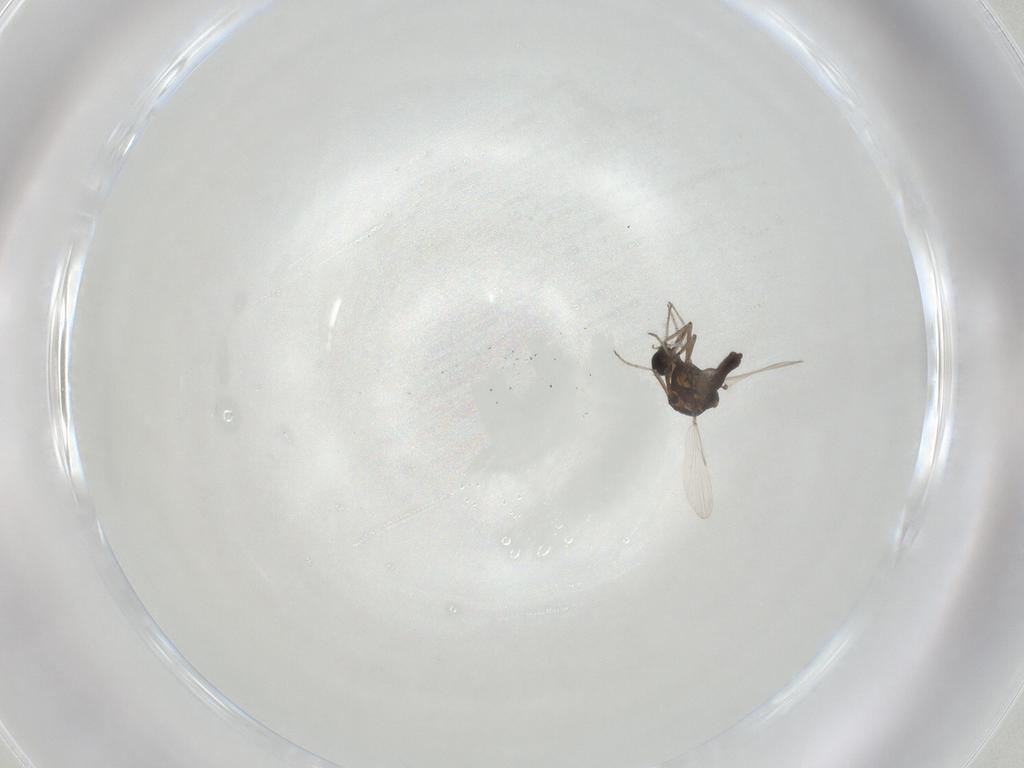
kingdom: Animalia
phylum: Arthropoda
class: Insecta
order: Diptera
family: Ceratopogonidae
